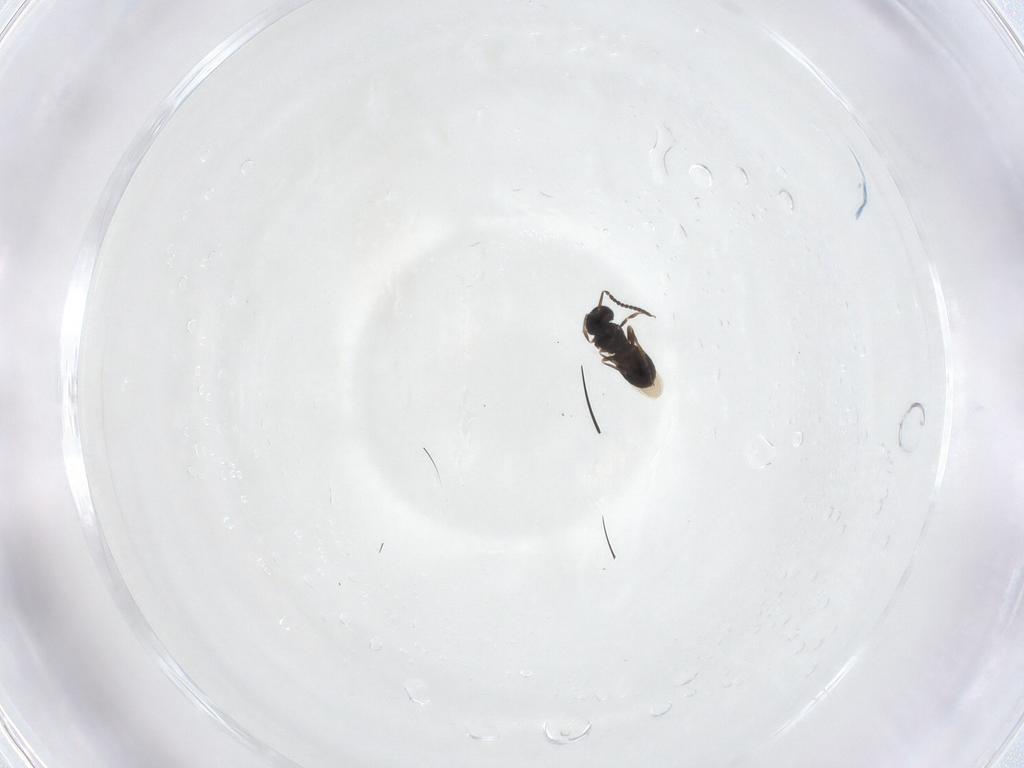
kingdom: Animalia
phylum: Arthropoda
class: Insecta
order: Hymenoptera
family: Scelionidae
